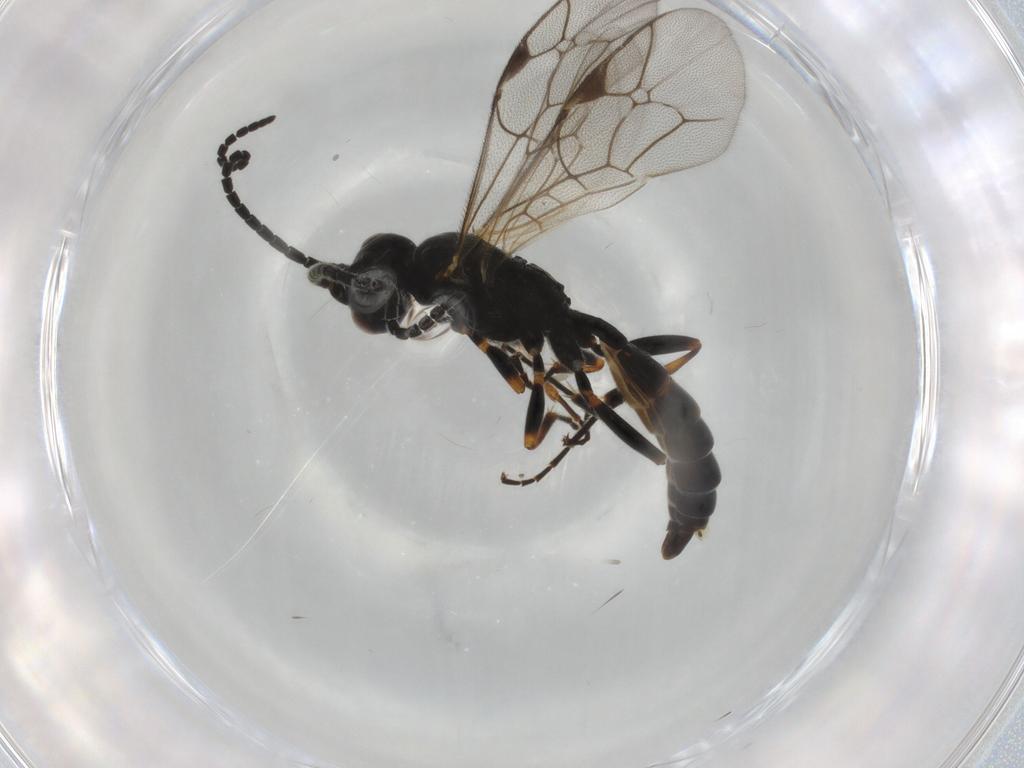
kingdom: Animalia
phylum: Arthropoda
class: Insecta
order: Hymenoptera
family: Ichneumonidae
